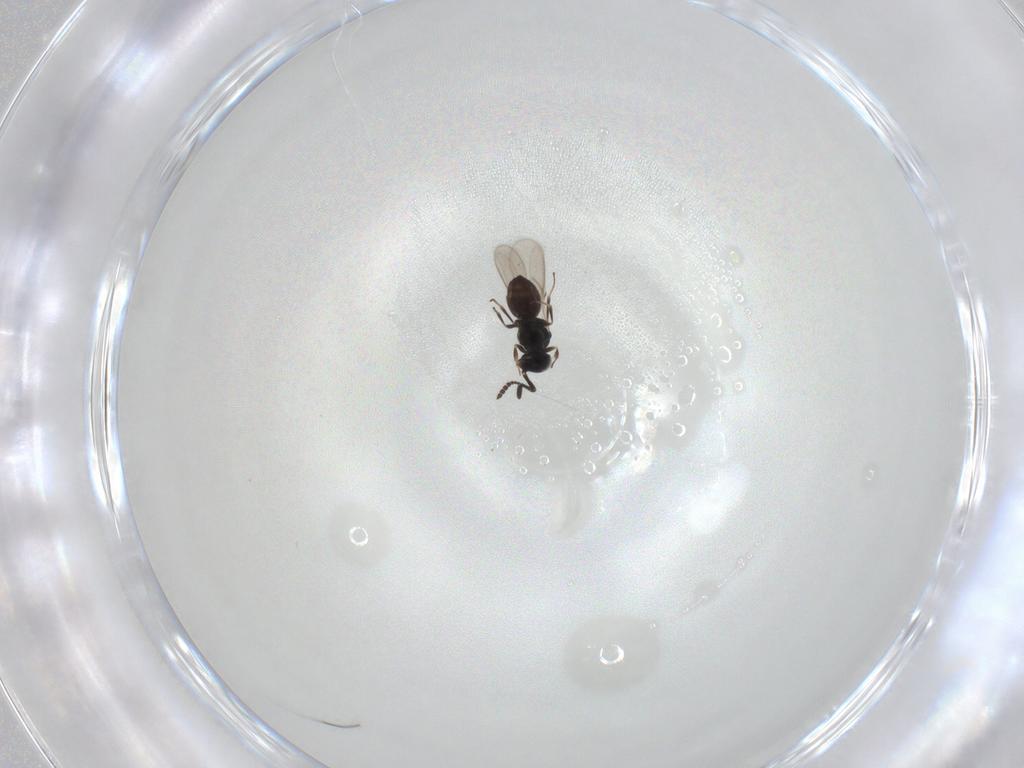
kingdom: Animalia
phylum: Arthropoda
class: Insecta
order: Hymenoptera
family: Scelionidae
